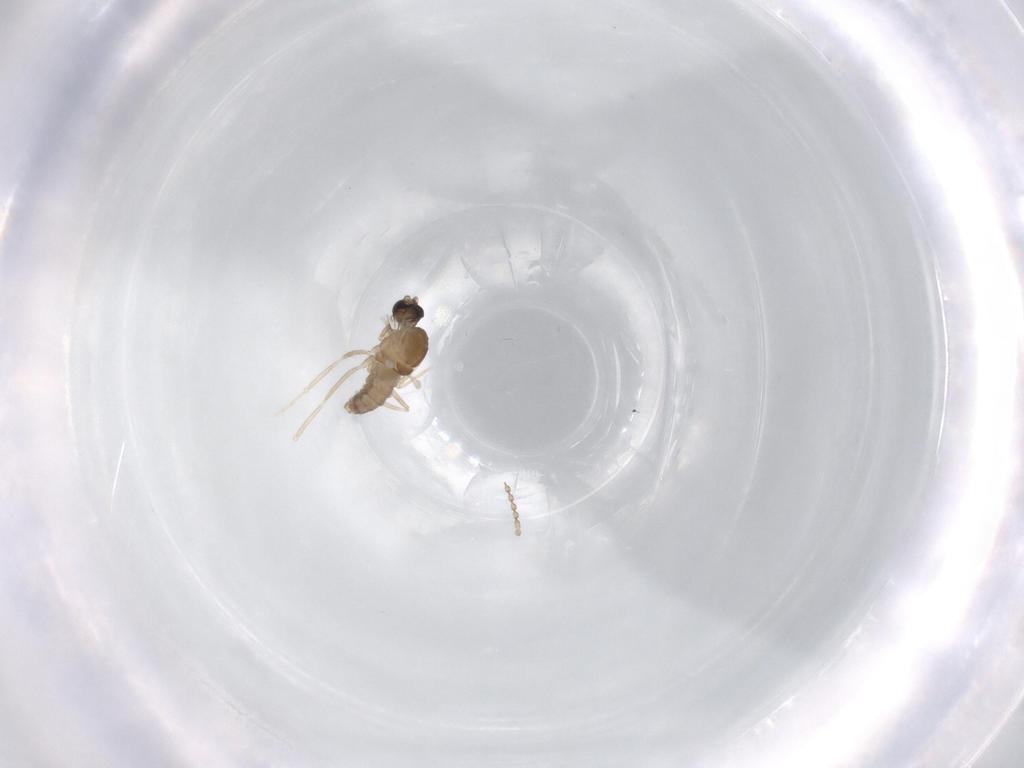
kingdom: Animalia
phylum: Arthropoda
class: Insecta
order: Diptera
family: Cecidomyiidae
